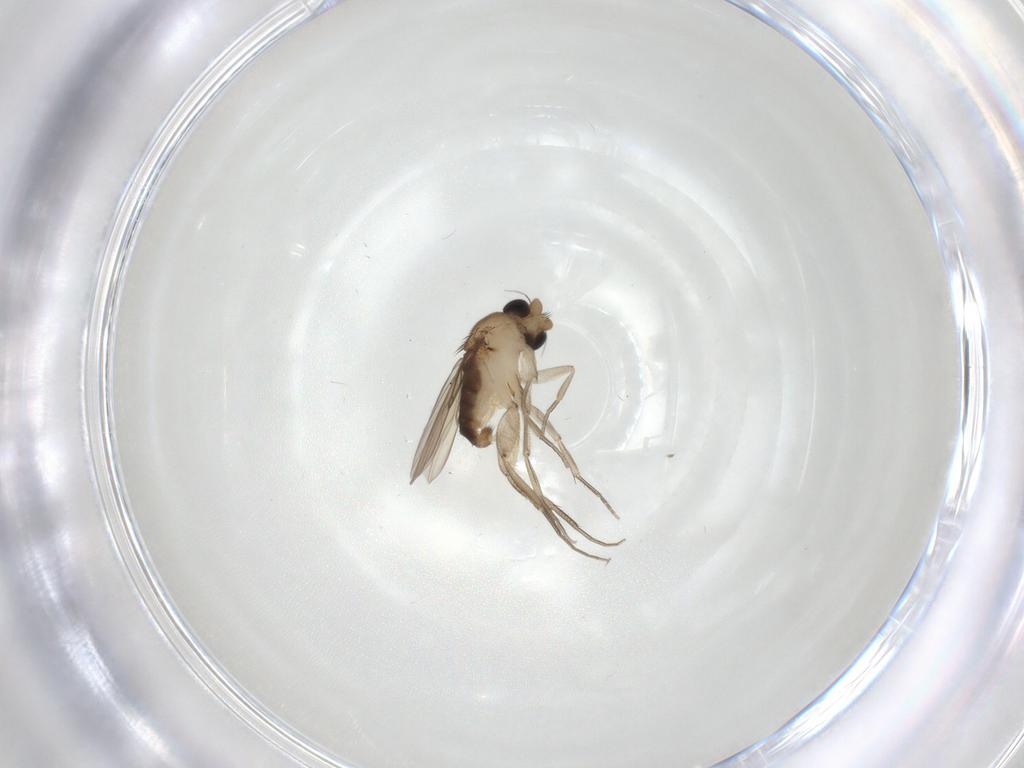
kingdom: Animalia
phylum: Arthropoda
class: Insecta
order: Diptera
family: Phoridae
